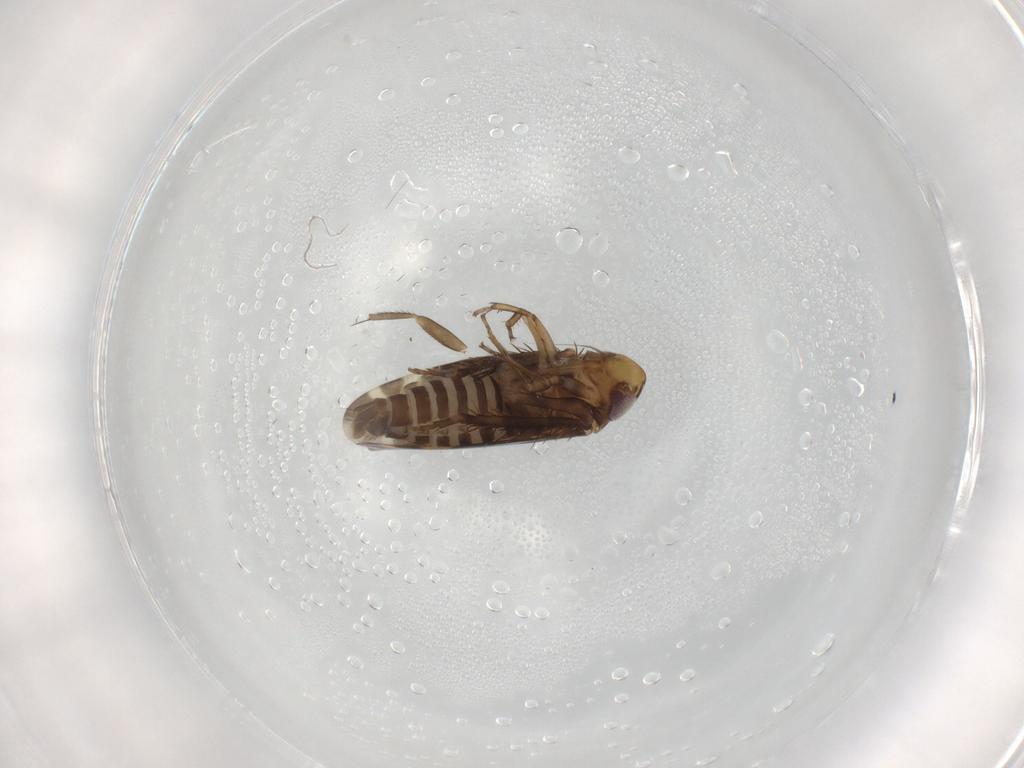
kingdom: Animalia
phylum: Arthropoda
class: Insecta
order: Hemiptera
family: Cicadellidae
